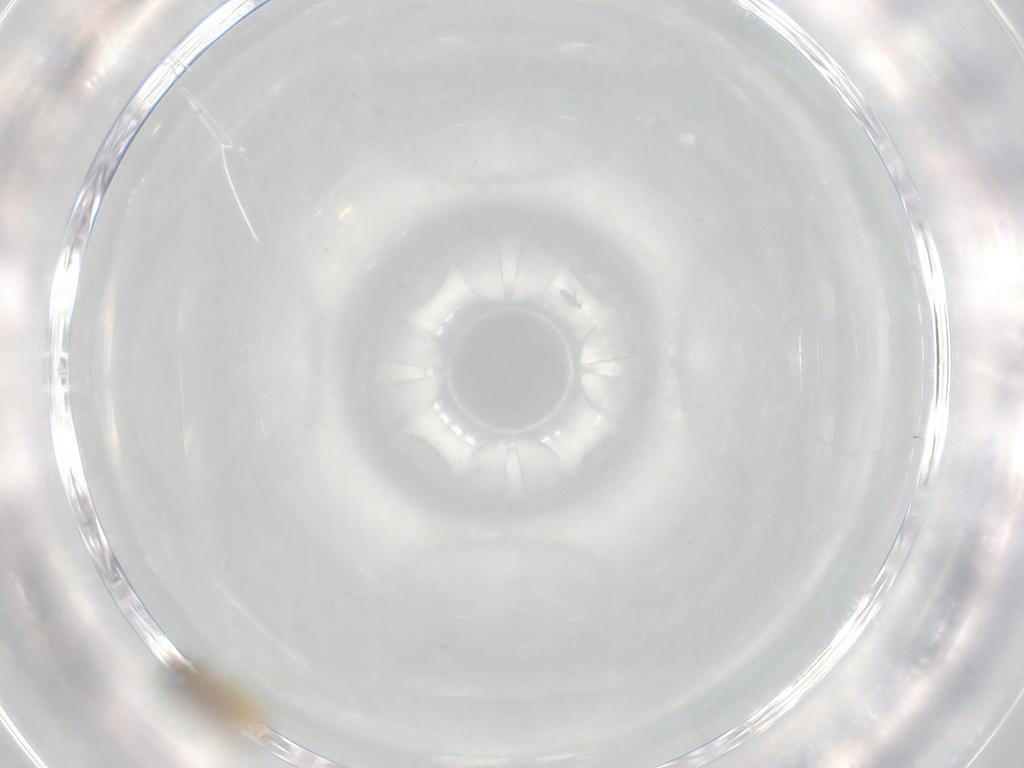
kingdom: Animalia
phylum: Arthropoda
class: Insecta
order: Diptera
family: Cecidomyiidae
